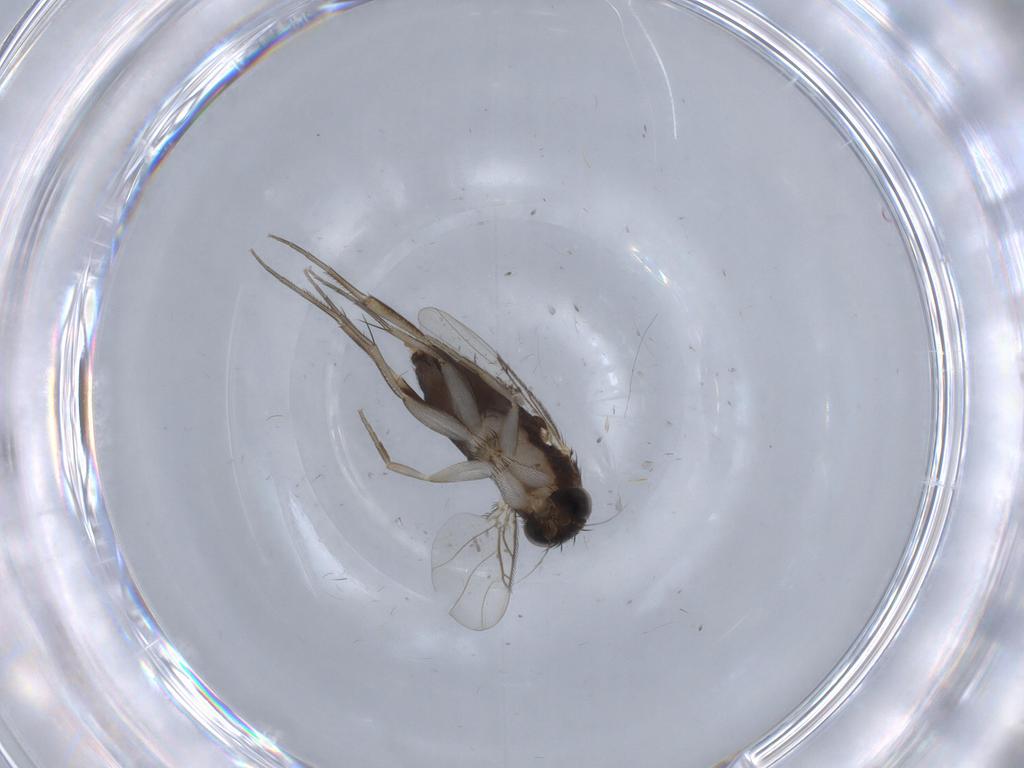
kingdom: Animalia
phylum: Arthropoda
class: Insecta
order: Diptera
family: Phoridae
